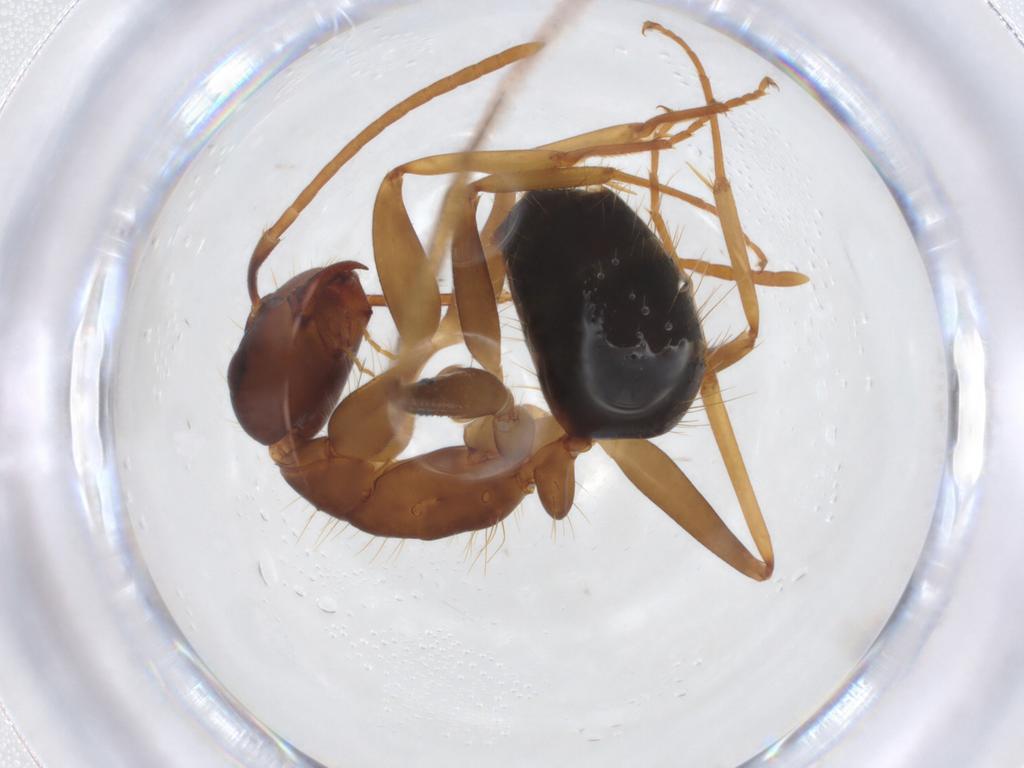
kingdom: Animalia
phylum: Arthropoda
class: Insecta
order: Hymenoptera
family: Formicidae
